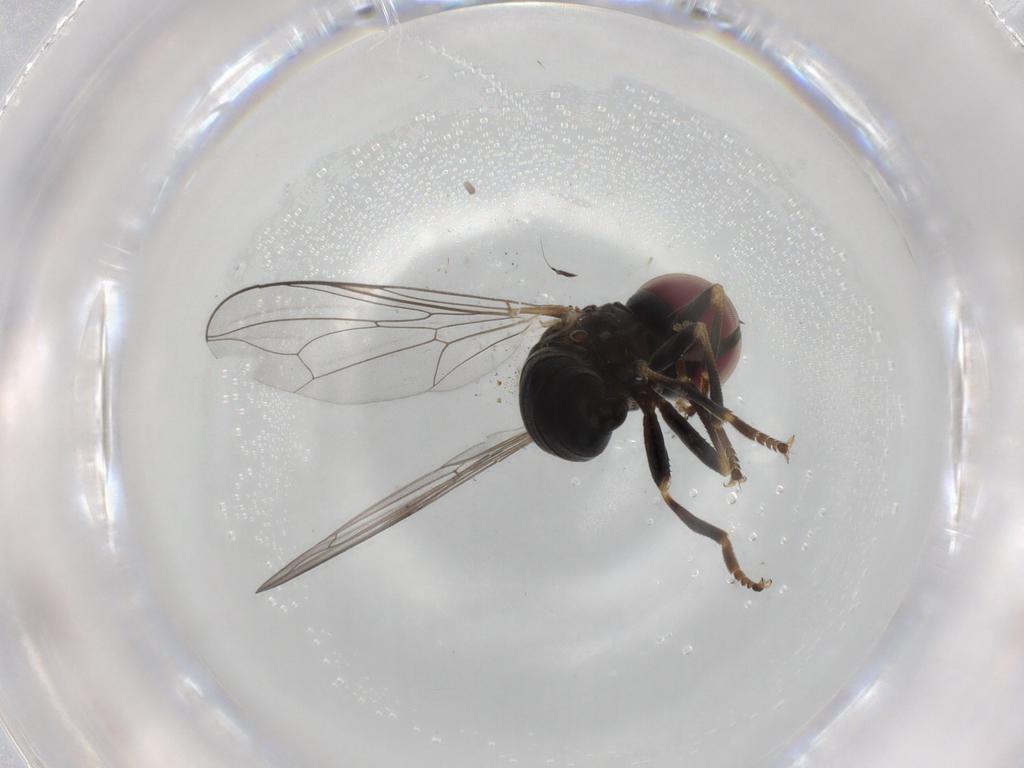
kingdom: Animalia
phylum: Arthropoda
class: Insecta
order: Diptera
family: Pipunculidae
